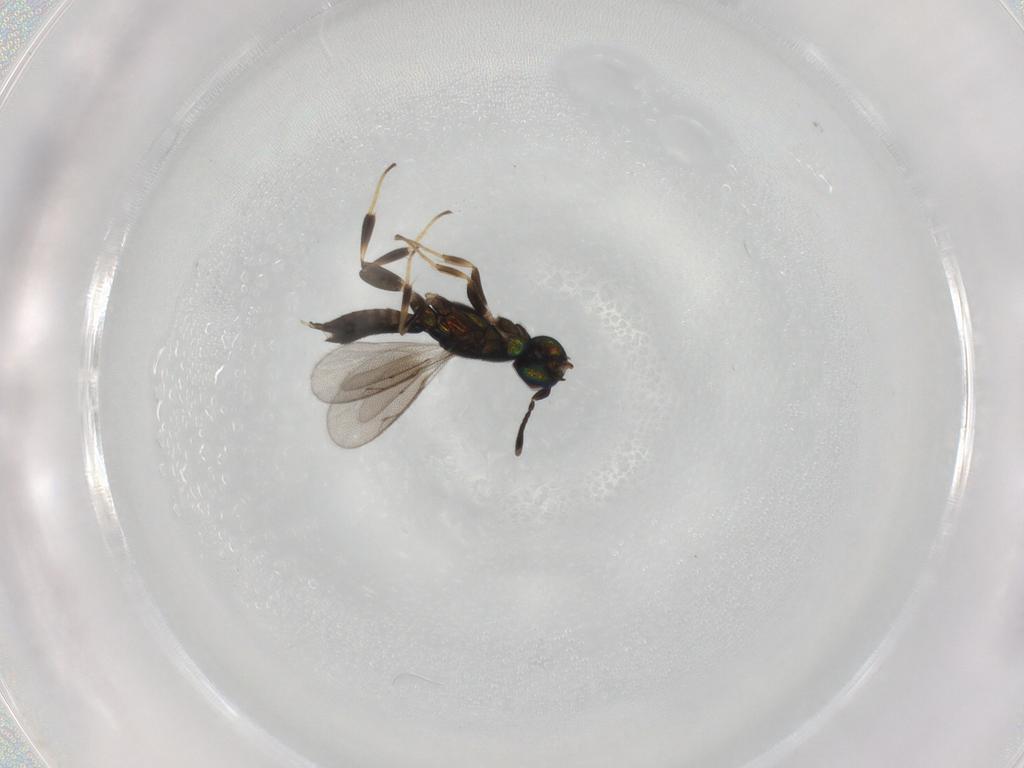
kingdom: Animalia
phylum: Arthropoda
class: Insecta
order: Hymenoptera
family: Eupelmidae
